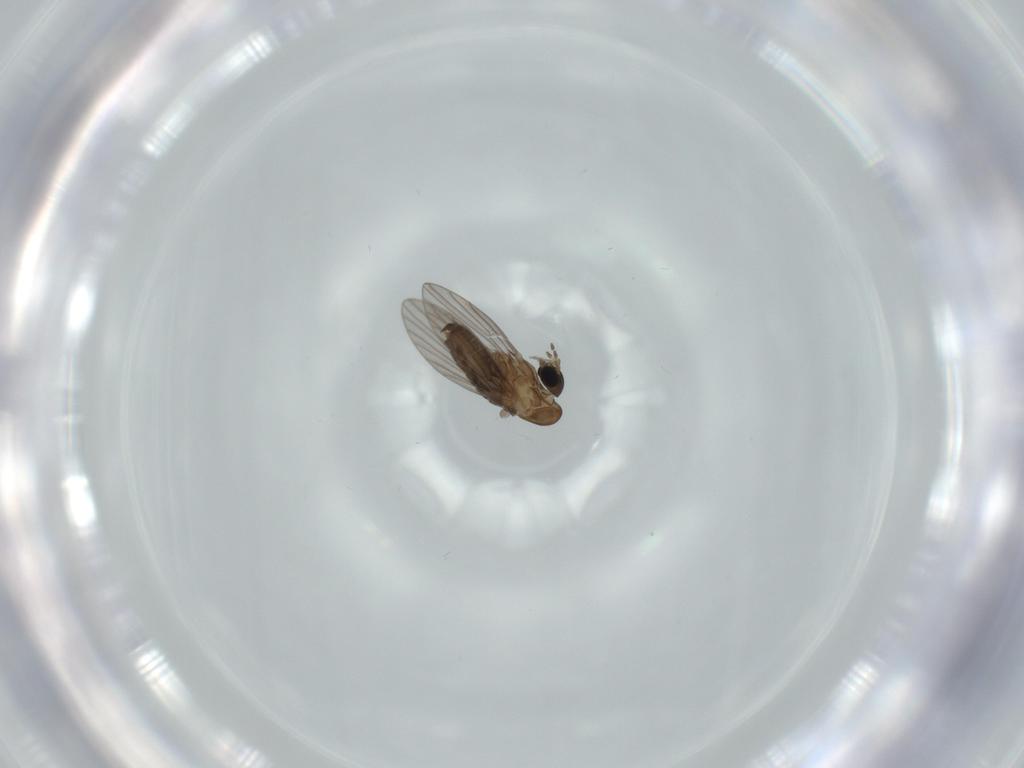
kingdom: Animalia
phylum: Arthropoda
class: Insecta
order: Diptera
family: Psychodidae
